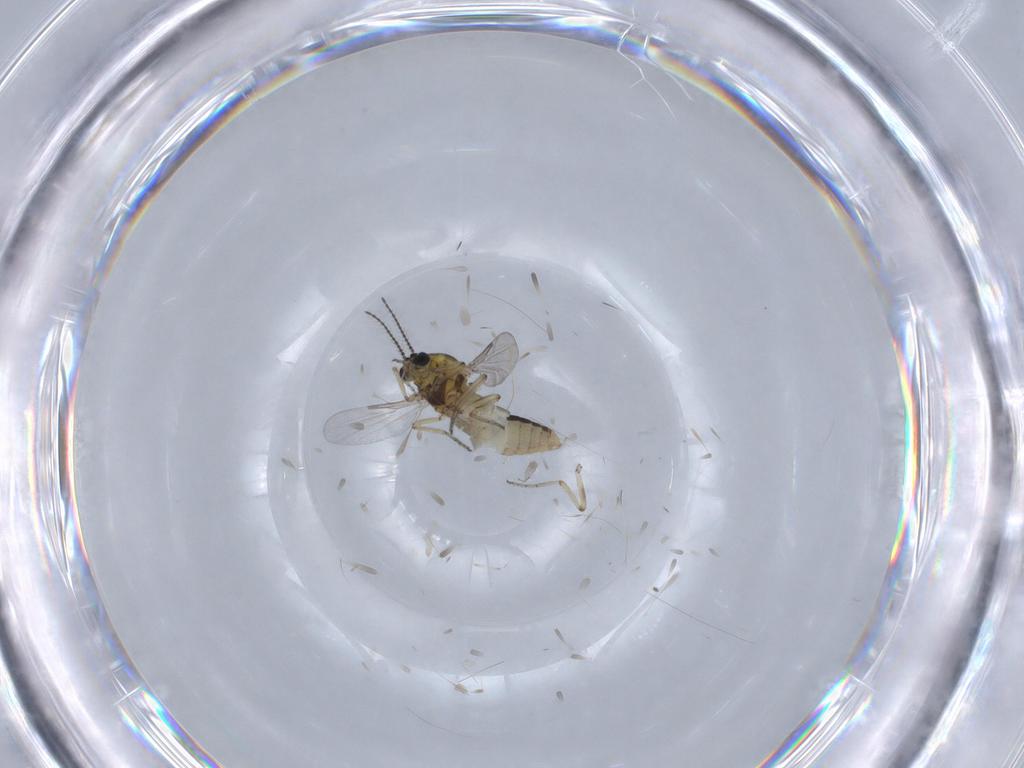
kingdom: Animalia
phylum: Arthropoda
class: Insecta
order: Diptera
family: Ceratopogonidae
